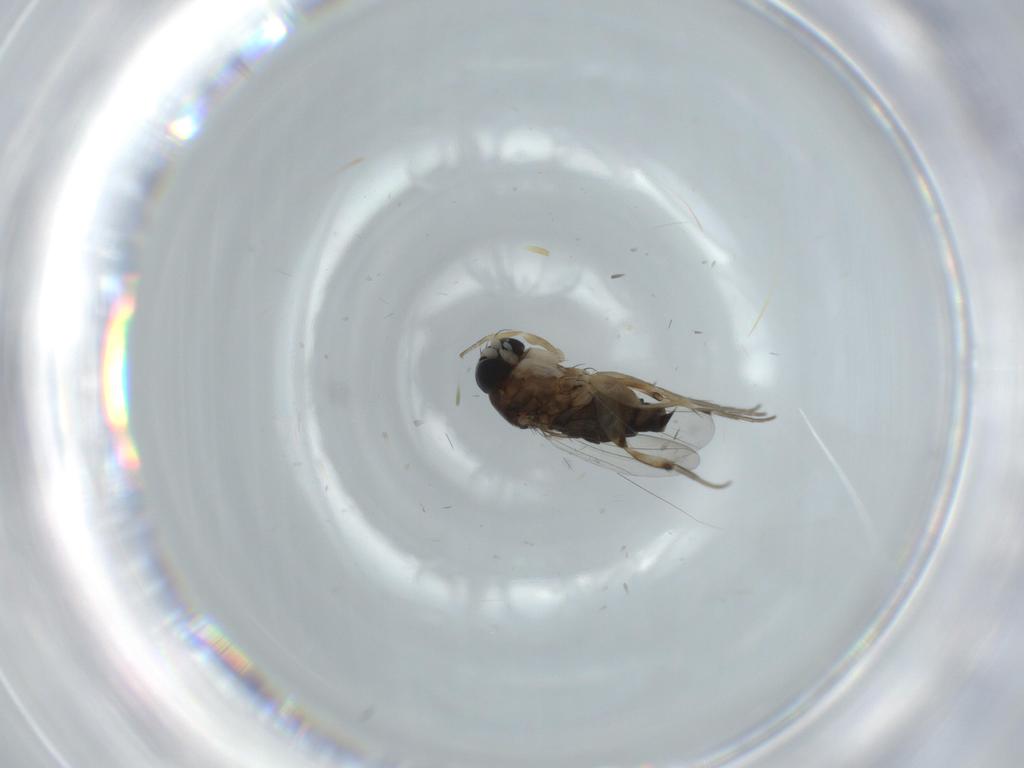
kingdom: Animalia
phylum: Arthropoda
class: Insecta
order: Diptera
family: Phoridae
